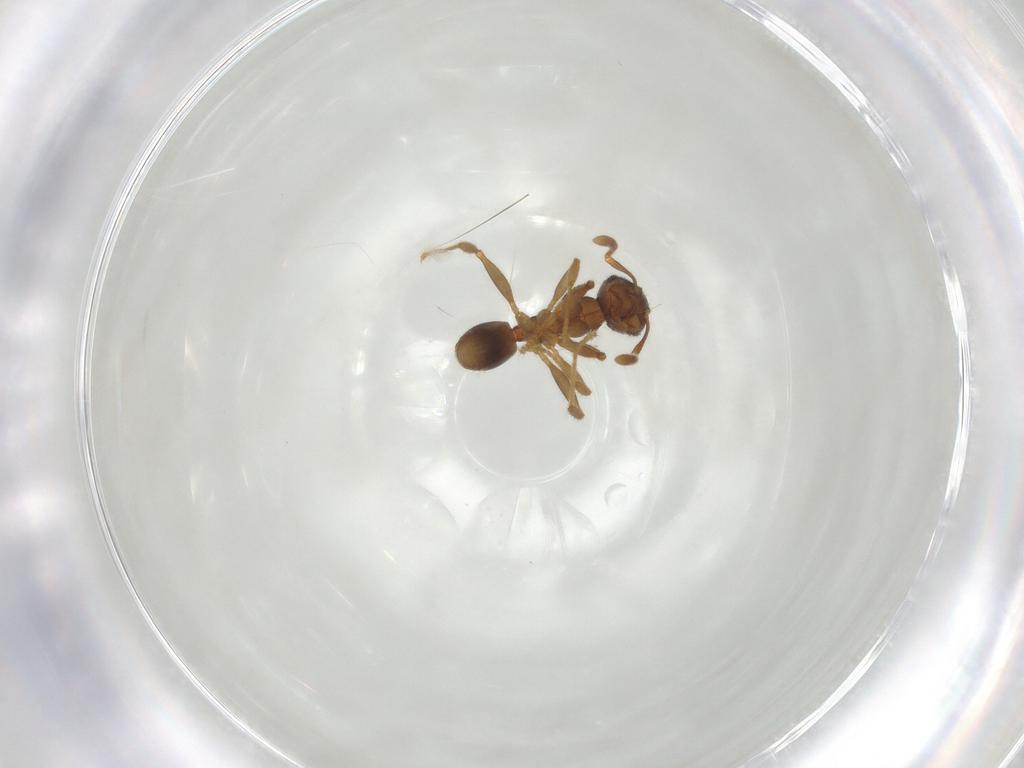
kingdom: Animalia
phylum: Arthropoda
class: Insecta
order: Hymenoptera
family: Formicidae
